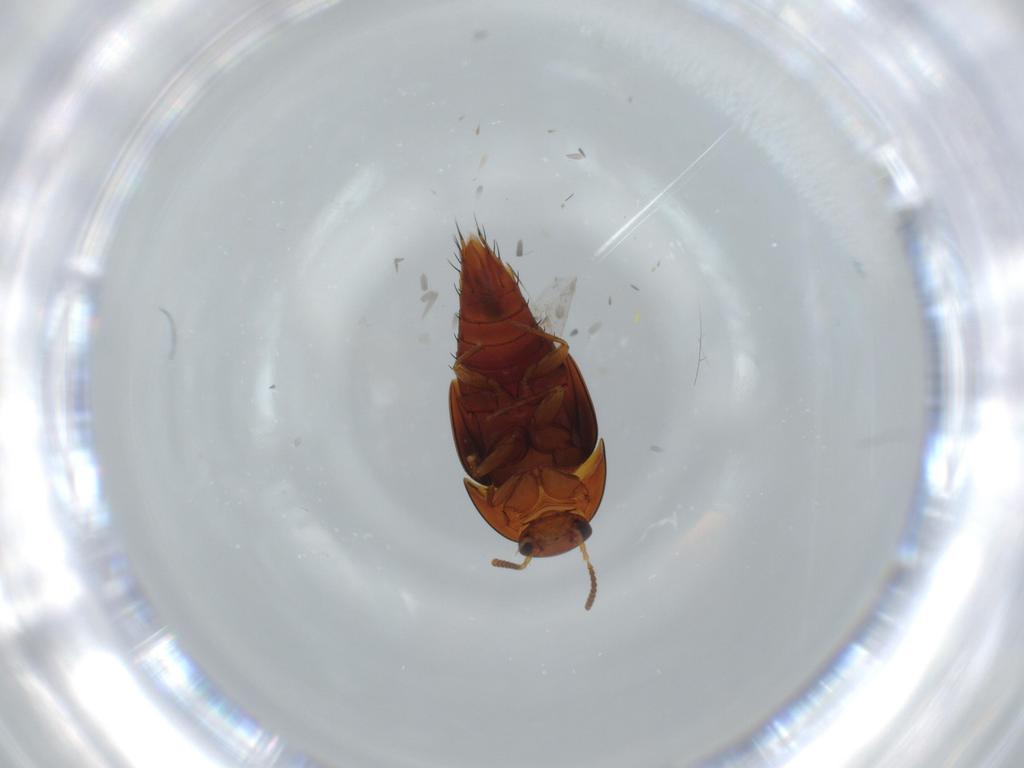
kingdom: Animalia
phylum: Arthropoda
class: Insecta
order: Coleoptera
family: Staphylinidae
